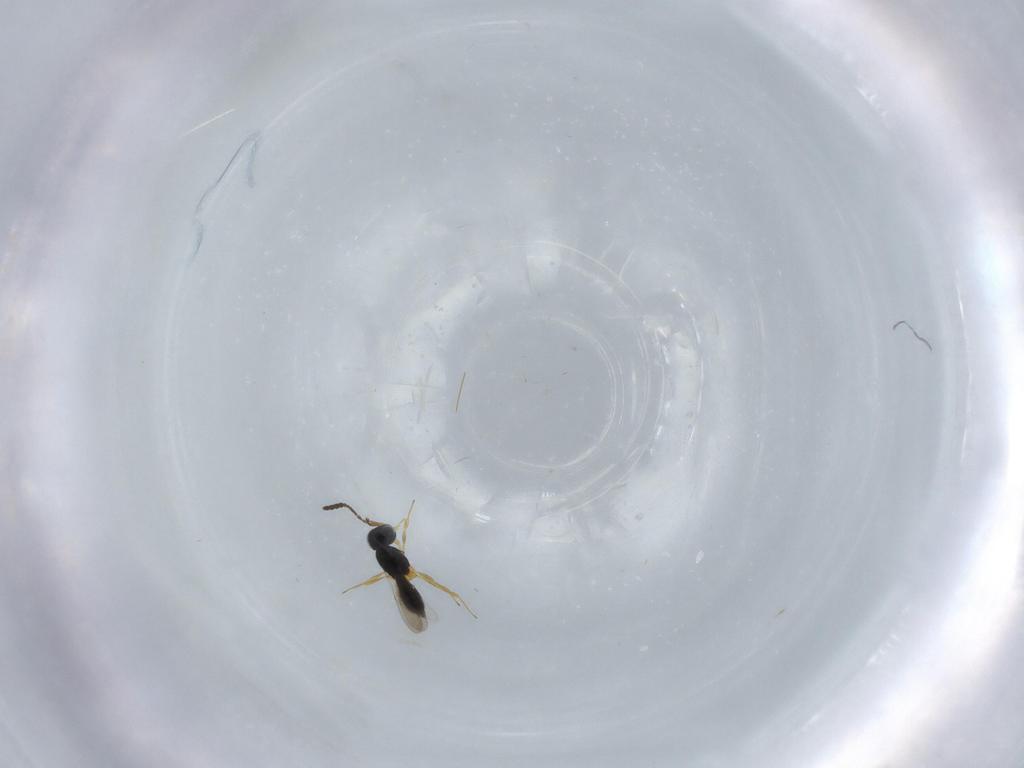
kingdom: Animalia
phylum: Arthropoda
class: Insecta
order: Hymenoptera
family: Scelionidae
